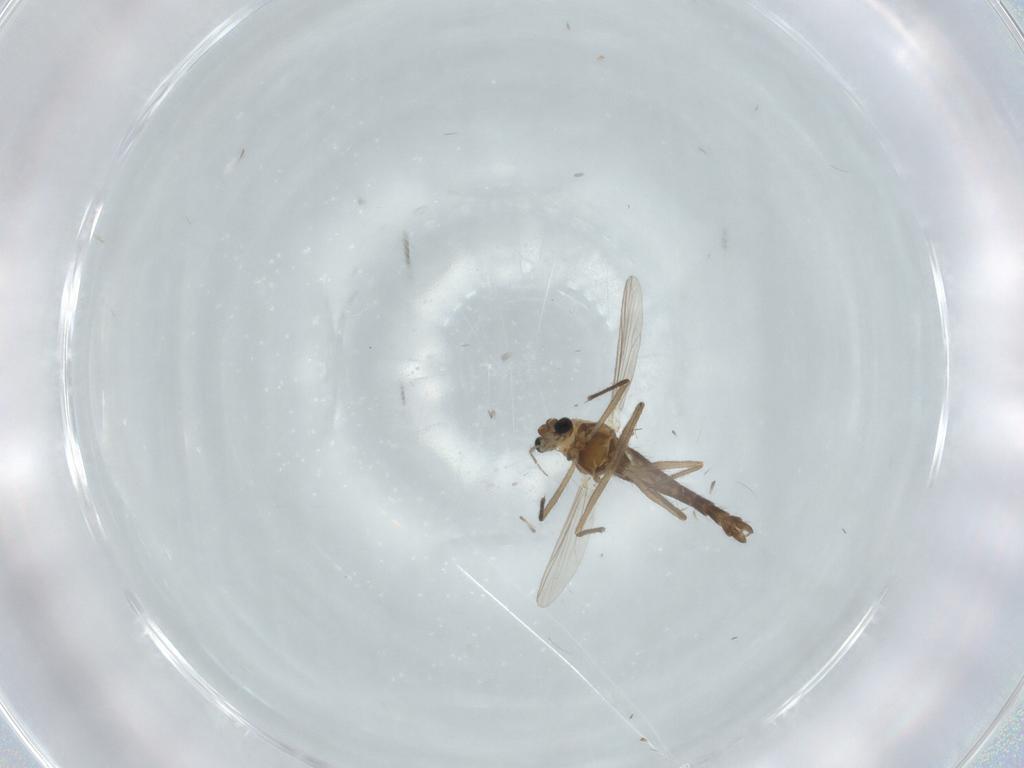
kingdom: Animalia
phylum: Arthropoda
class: Insecta
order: Diptera
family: Chironomidae
